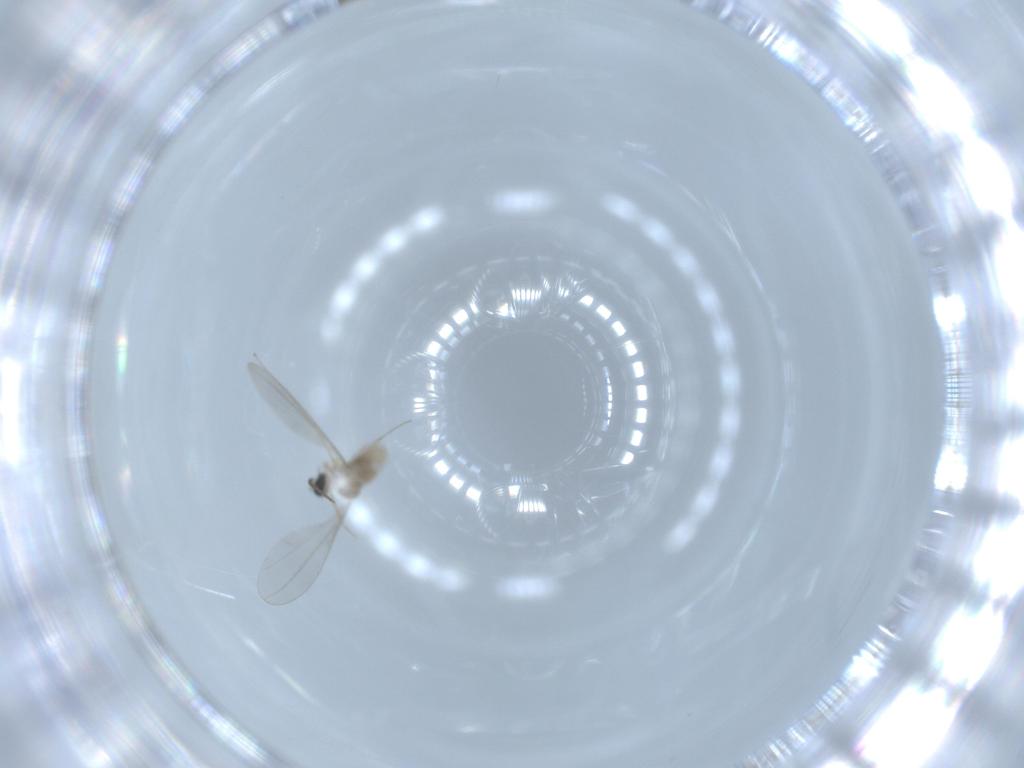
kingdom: Animalia
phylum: Arthropoda
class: Insecta
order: Diptera
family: Cecidomyiidae
